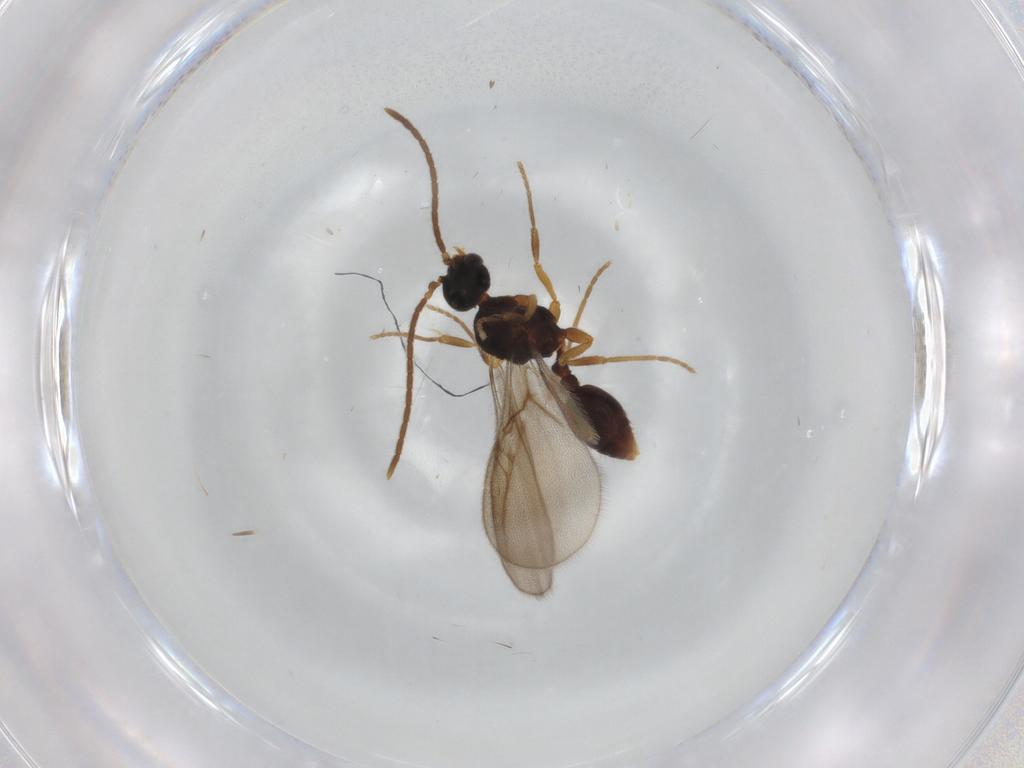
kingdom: Animalia
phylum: Arthropoda
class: Insecta
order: Hymenoptera
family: Formicidae
